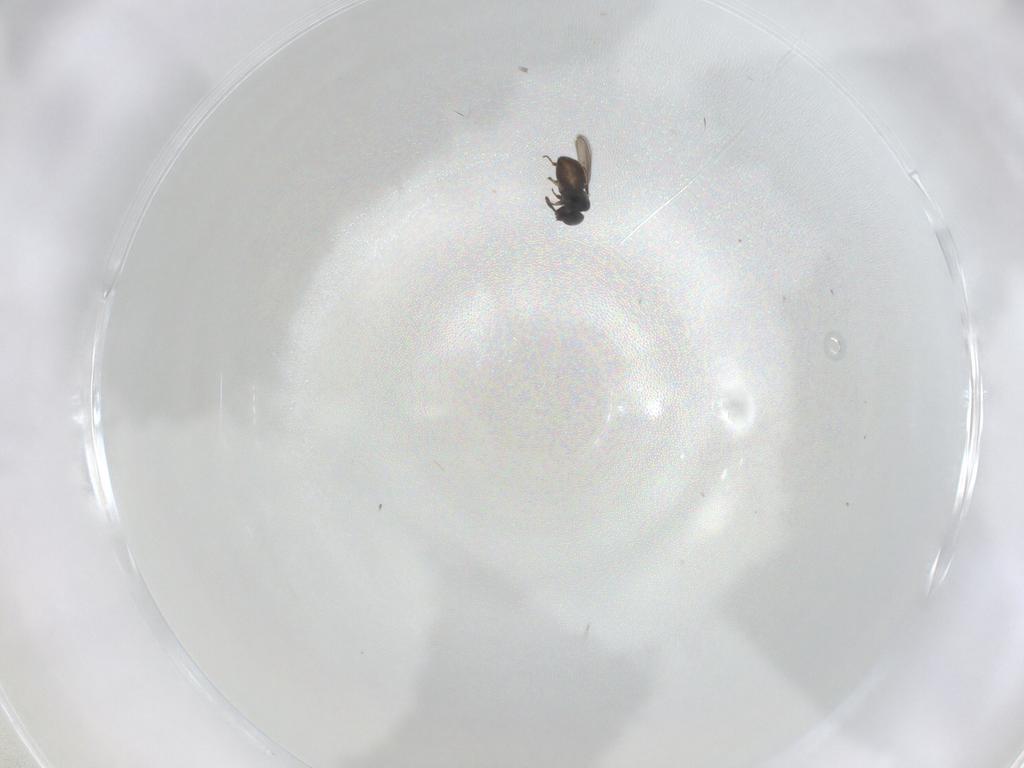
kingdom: Animalia
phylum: Arthropoda
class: Insecta
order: Hymenoptera
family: Scelionidae
